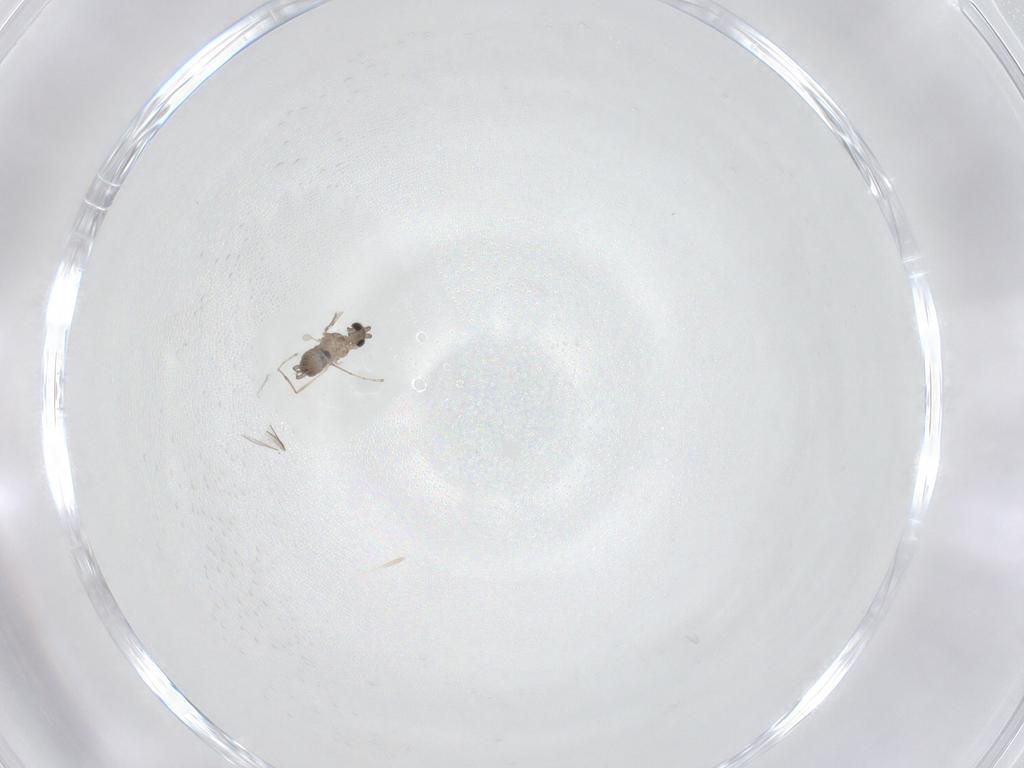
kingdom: Animalia
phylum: Arthropoda
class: Insecta
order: Diptera
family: Cecidomyiidae
